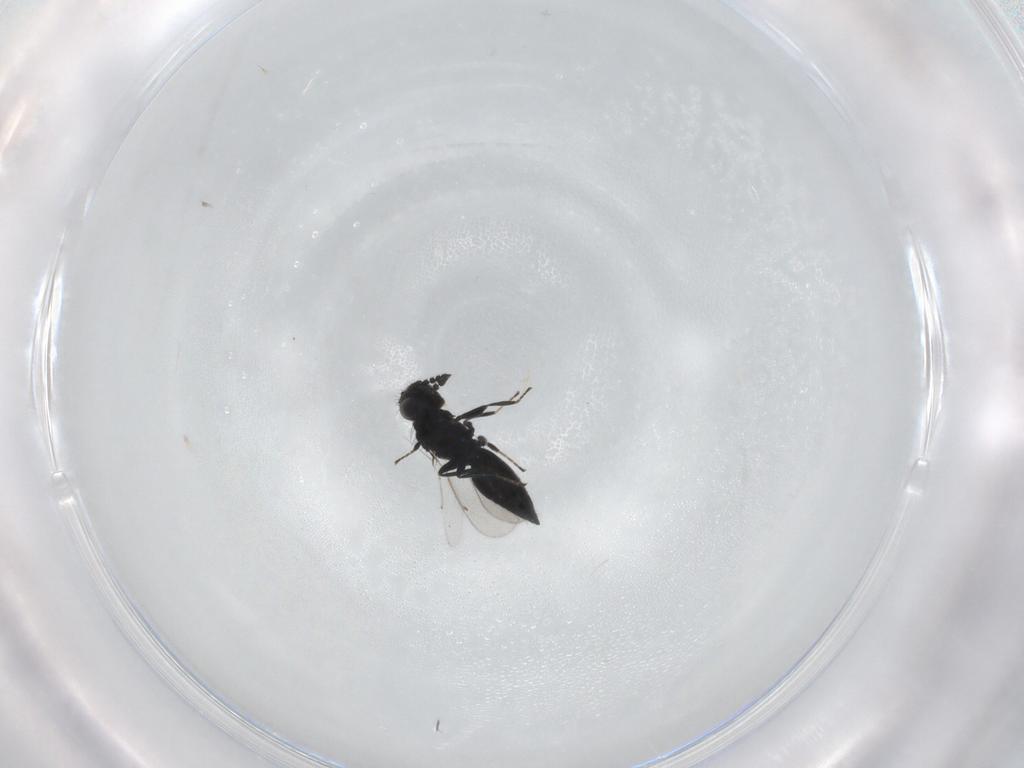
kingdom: Animalia
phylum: Arthropoda
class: Insecta
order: Hymenoptera
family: Eulophidae
